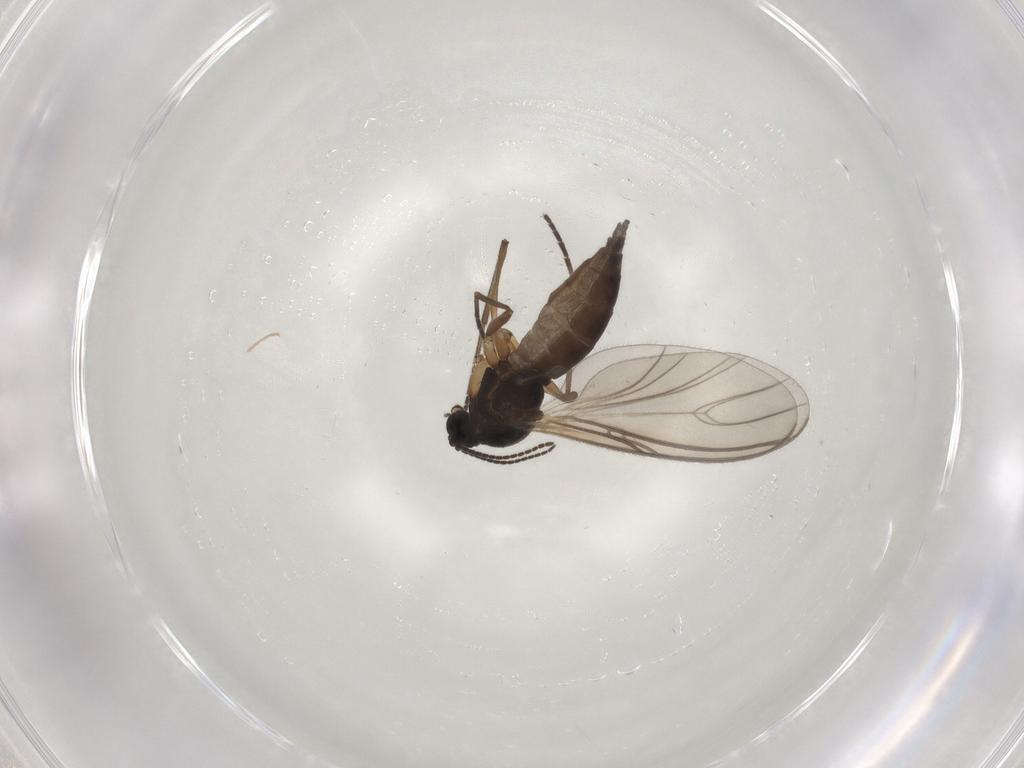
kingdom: Animalia
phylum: Arthropoda
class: Insecta
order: Diptera
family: Sciaridae
